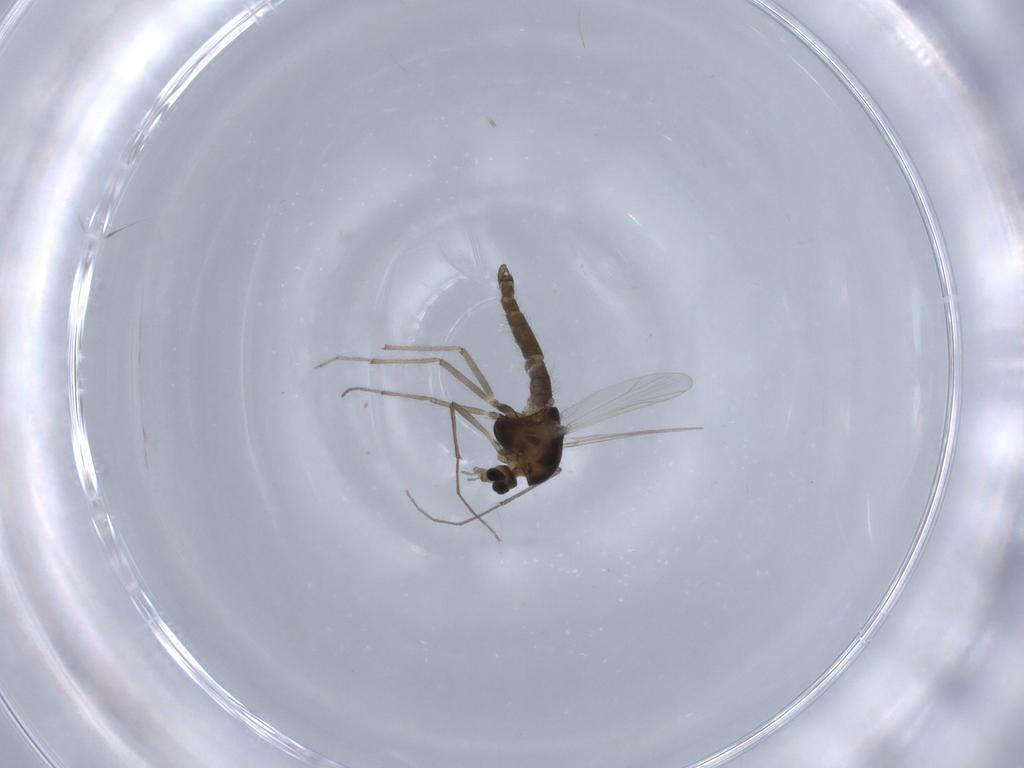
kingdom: Animalia
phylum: Arthropoda
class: Insecta
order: Diptera
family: Chironomidae
